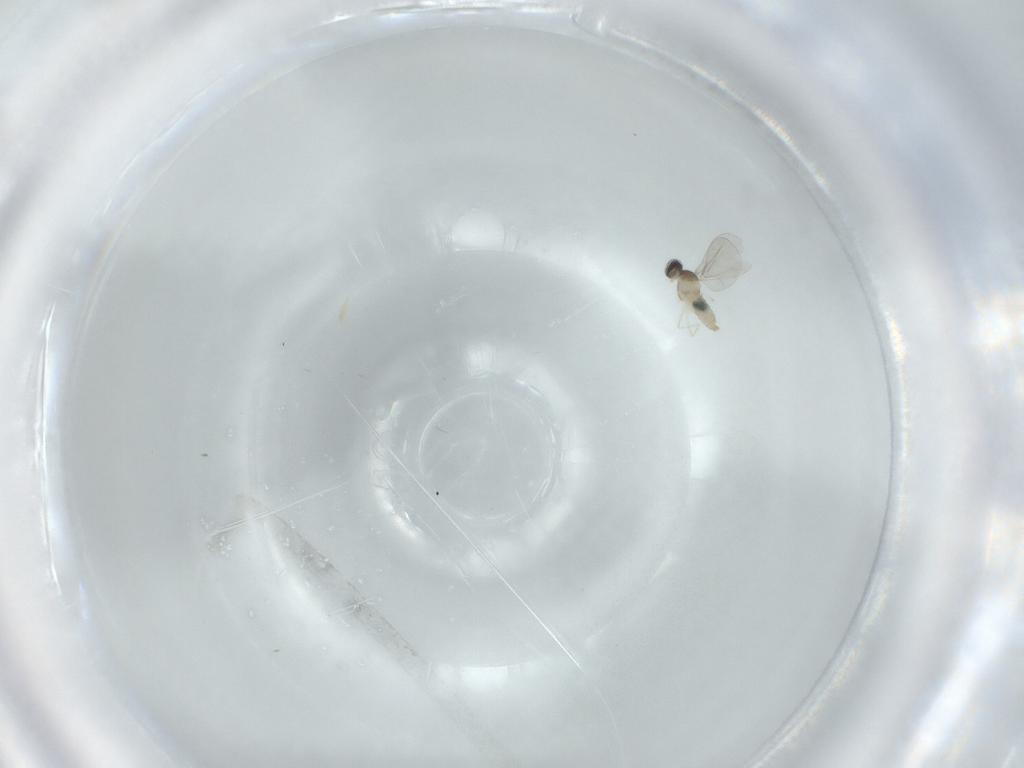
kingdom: Animalia
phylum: Arthropoda
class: Insecta
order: Diptera
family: Cecidomyiidae
